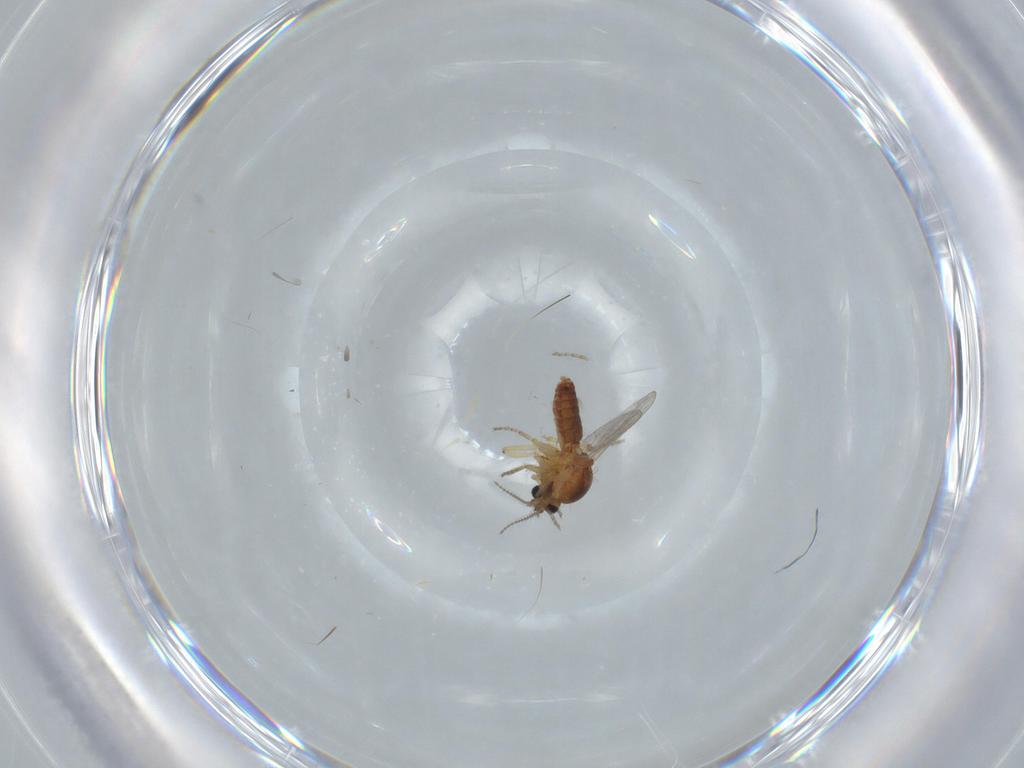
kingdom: Animalia
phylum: Arthropoda
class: Insecta
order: Diptera
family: Ceratopogonidae
